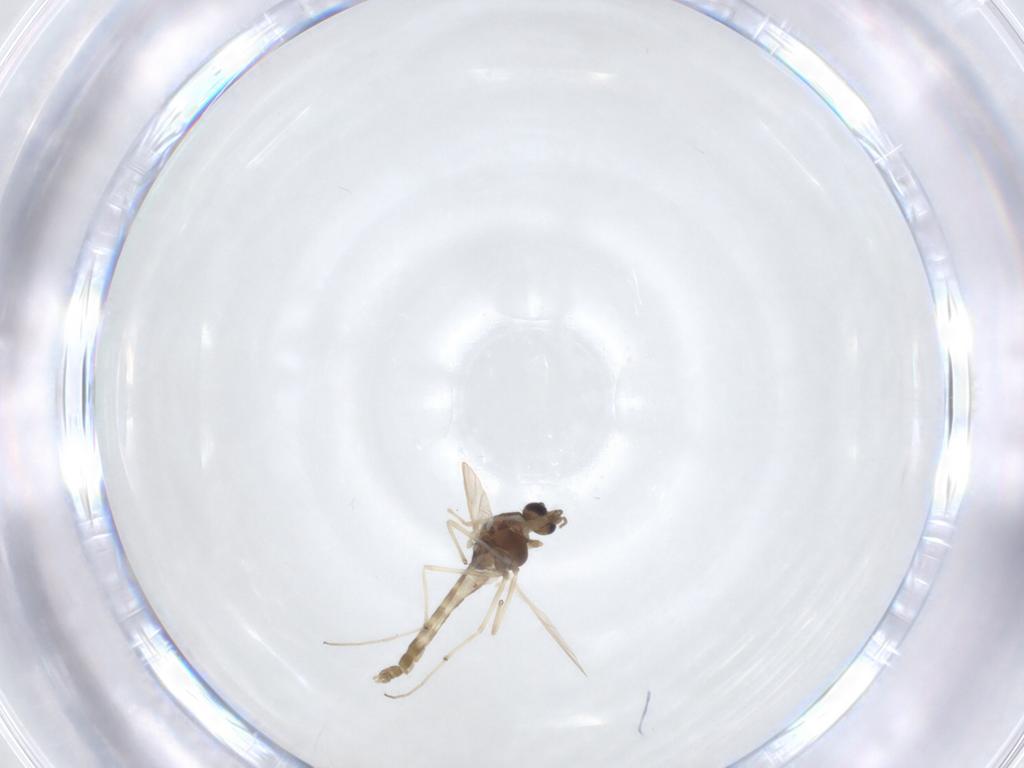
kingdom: Animalia
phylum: Arthropoda
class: Insecta
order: Diptera
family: Chironomidae
